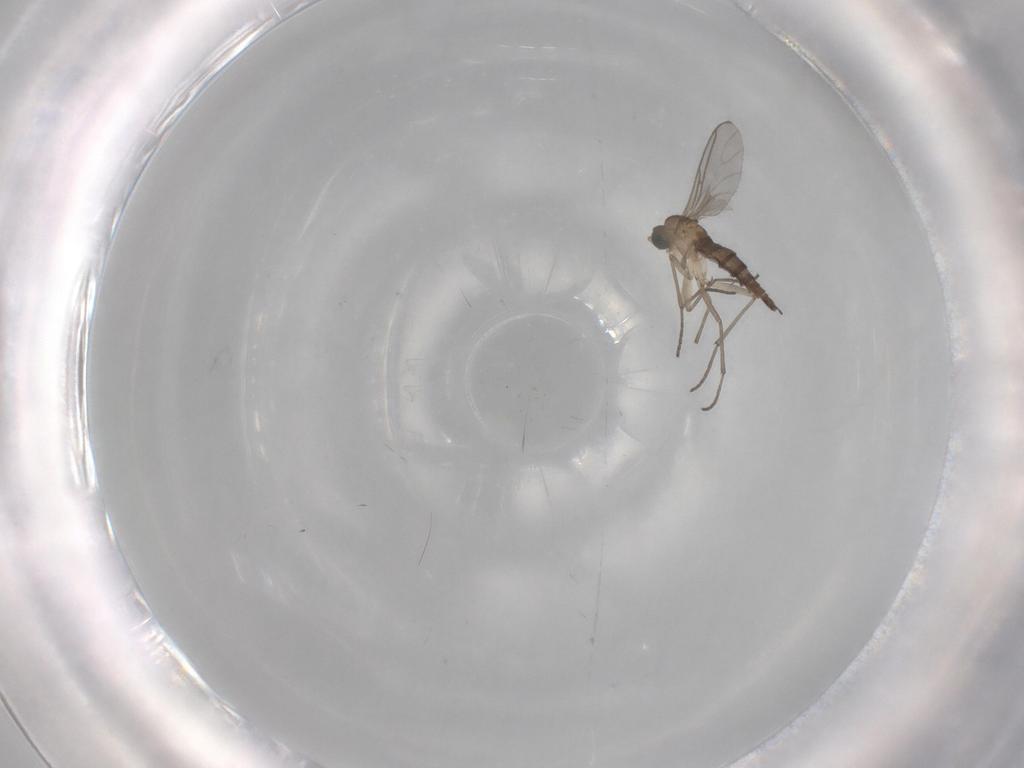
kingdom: Animalia
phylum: Arthropoda
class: Insecta
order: Diptera
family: Sciaridae
